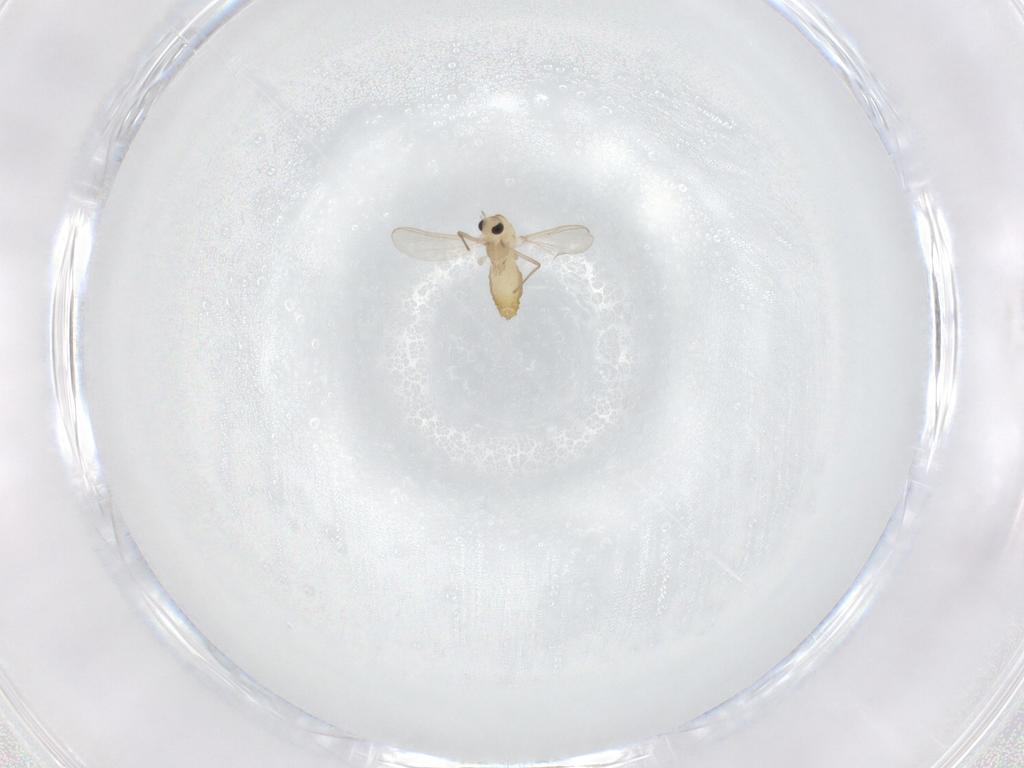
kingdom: Animalia
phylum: Arthropoda
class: Insecta
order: Diptera
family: Chironomidae
